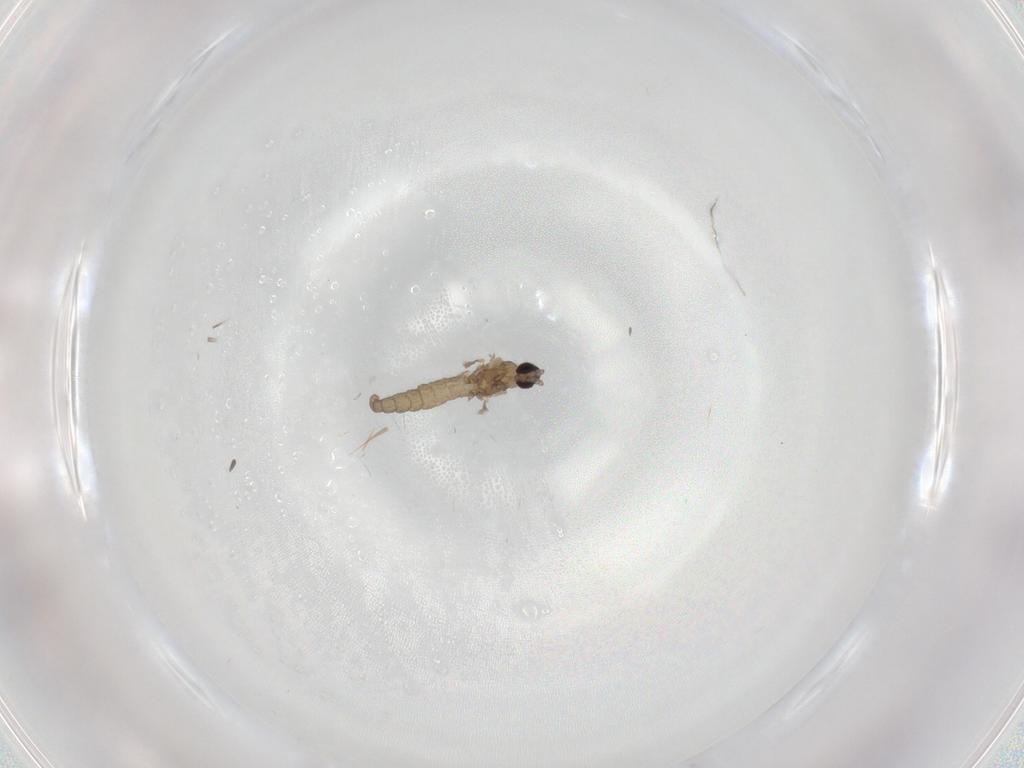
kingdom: Animalia
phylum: Arthropoda
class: Insecta
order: Diptera
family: Cecidomyiidae
